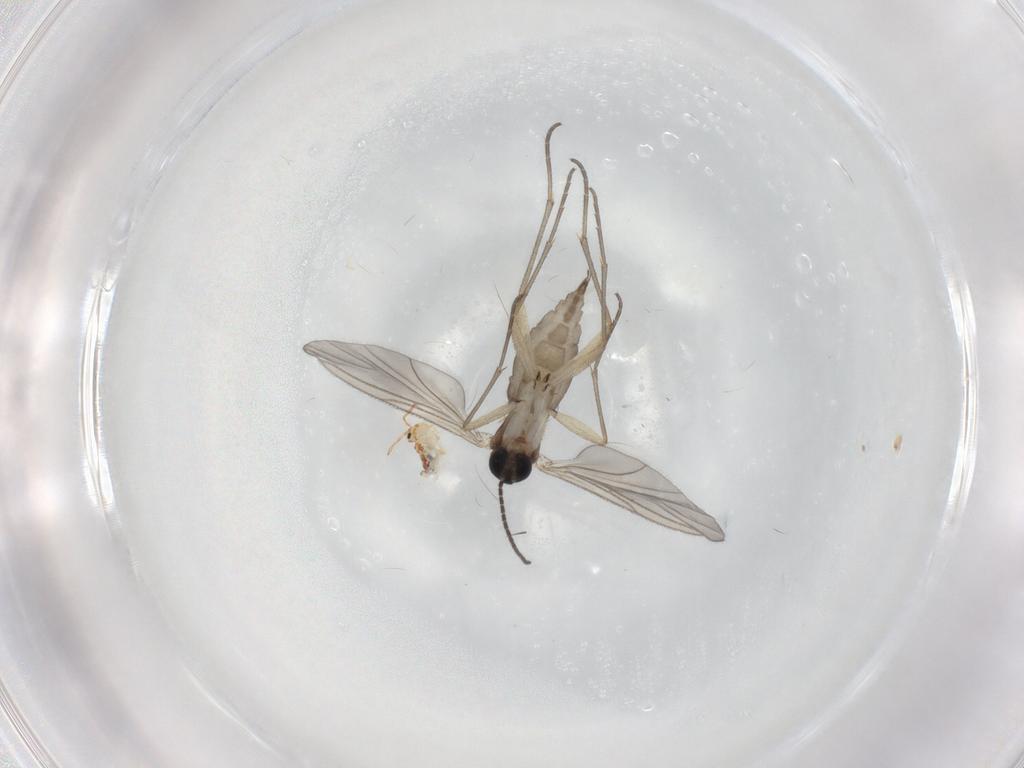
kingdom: Animalia
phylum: Arthropoda
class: Insecta
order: Diptera
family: Sciaridae
